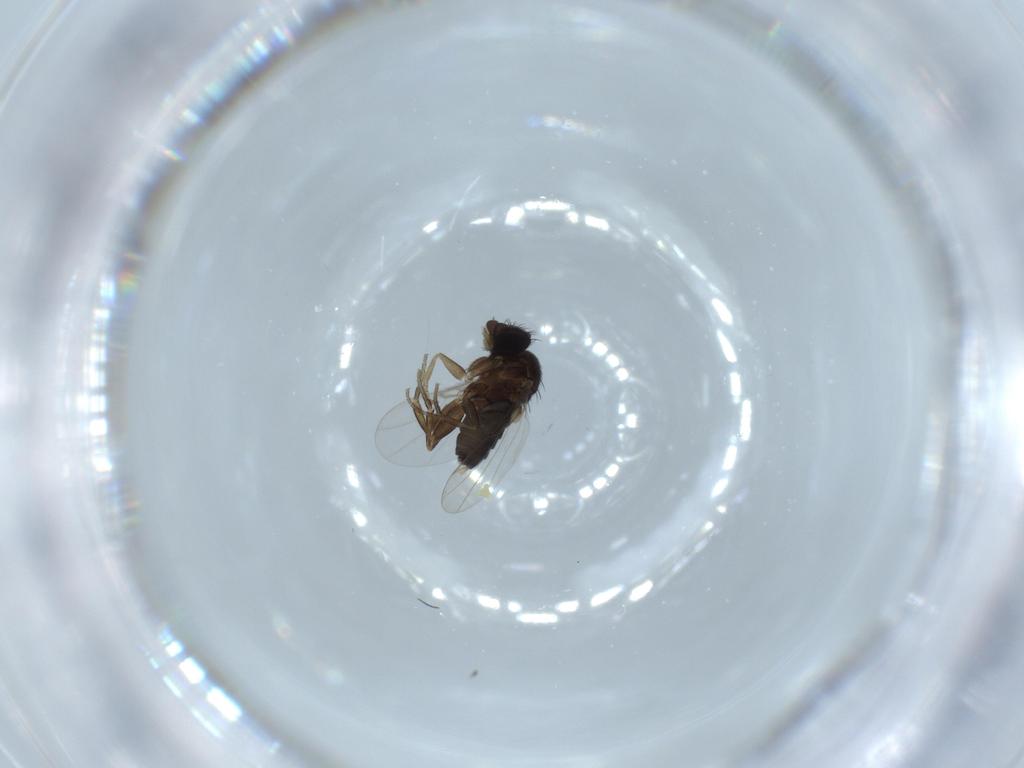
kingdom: Animalia
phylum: Arthropoda
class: Insecta
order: Diptera
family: Phoridae
